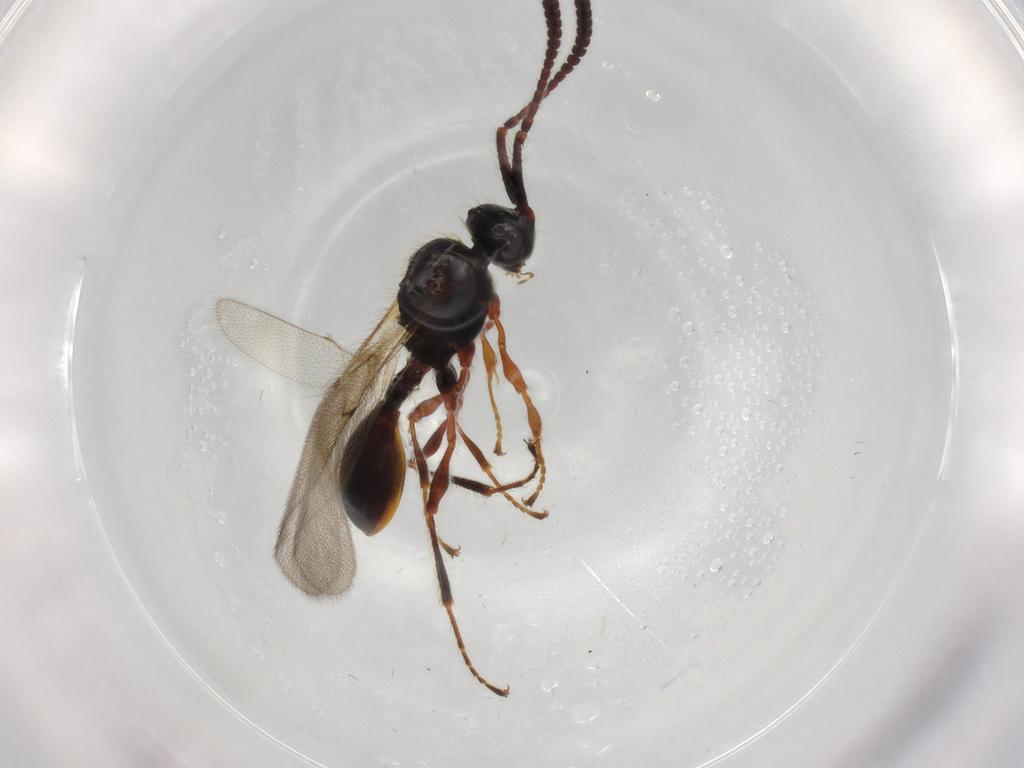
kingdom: Animalia
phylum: Arthropoda
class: Insecta
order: Hymenoptera
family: Diapriidae
